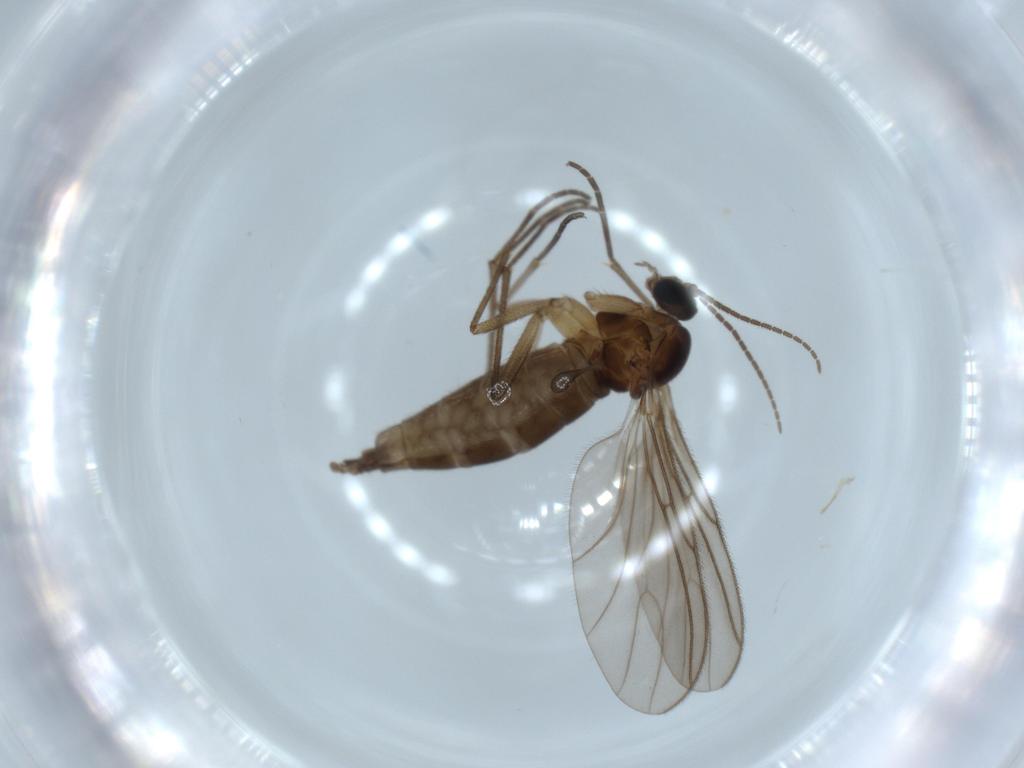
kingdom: Animalia
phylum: Arthropoda
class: Insecta
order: Diptera
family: Sciaridae
